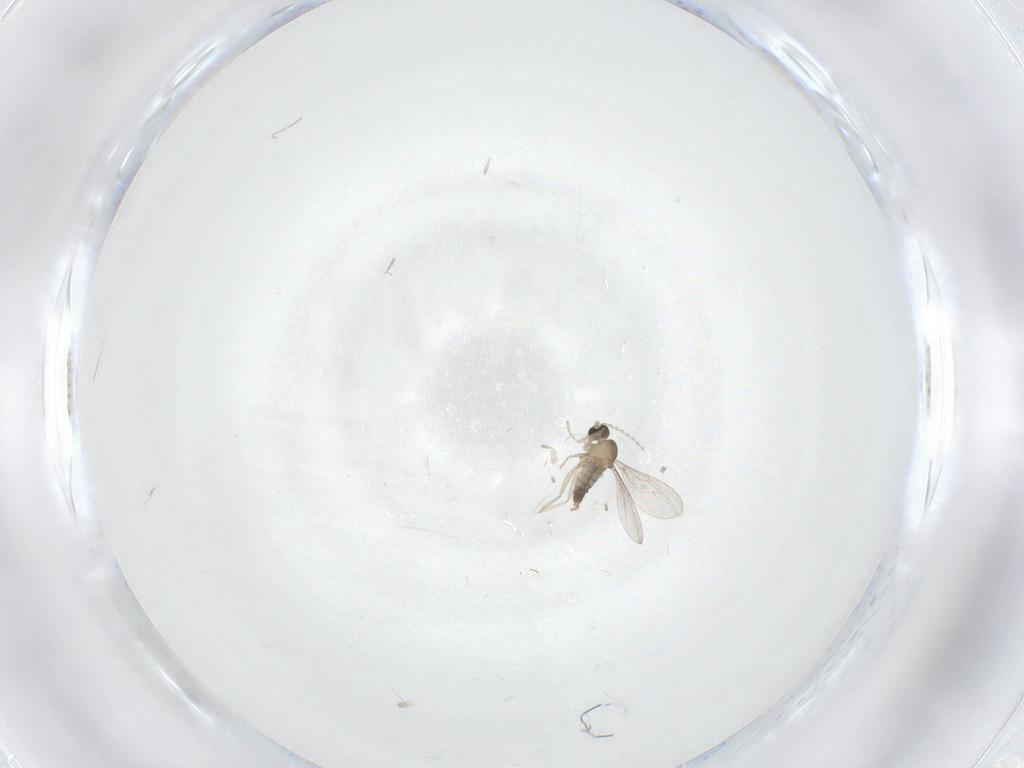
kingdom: Animalia
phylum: Arthropoda
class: Insecta
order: Diptera
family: Cecidomyiidae
